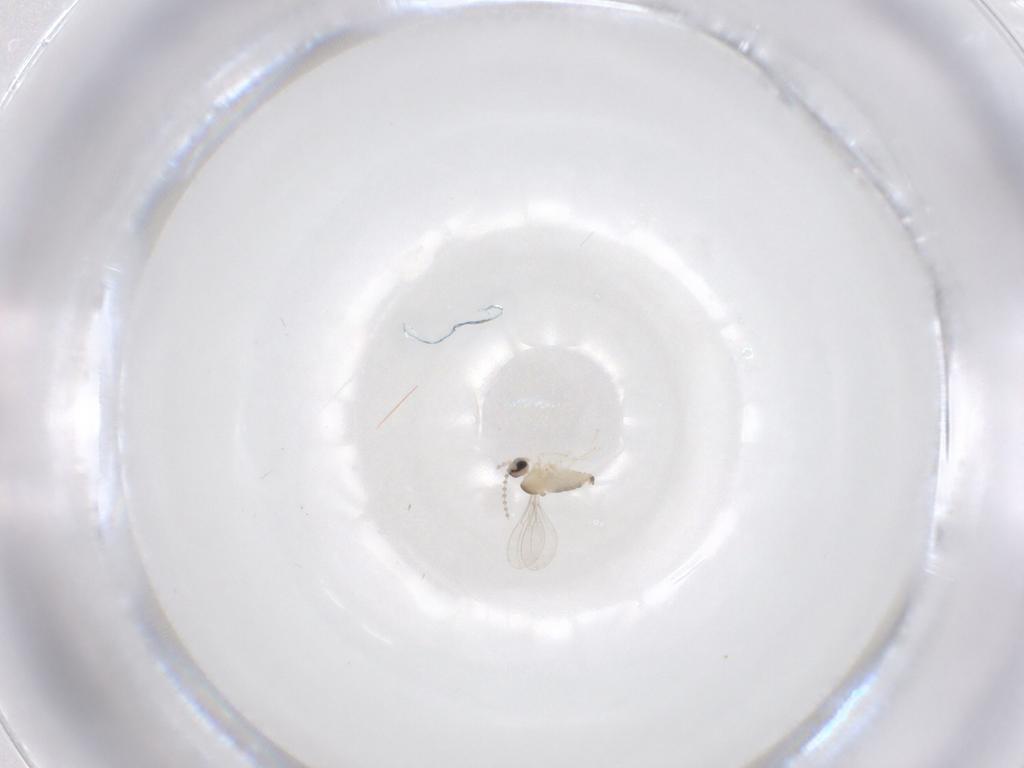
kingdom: Animalia
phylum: Arthropoda
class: Insecta
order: Diptera
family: Cecidomyiidae
